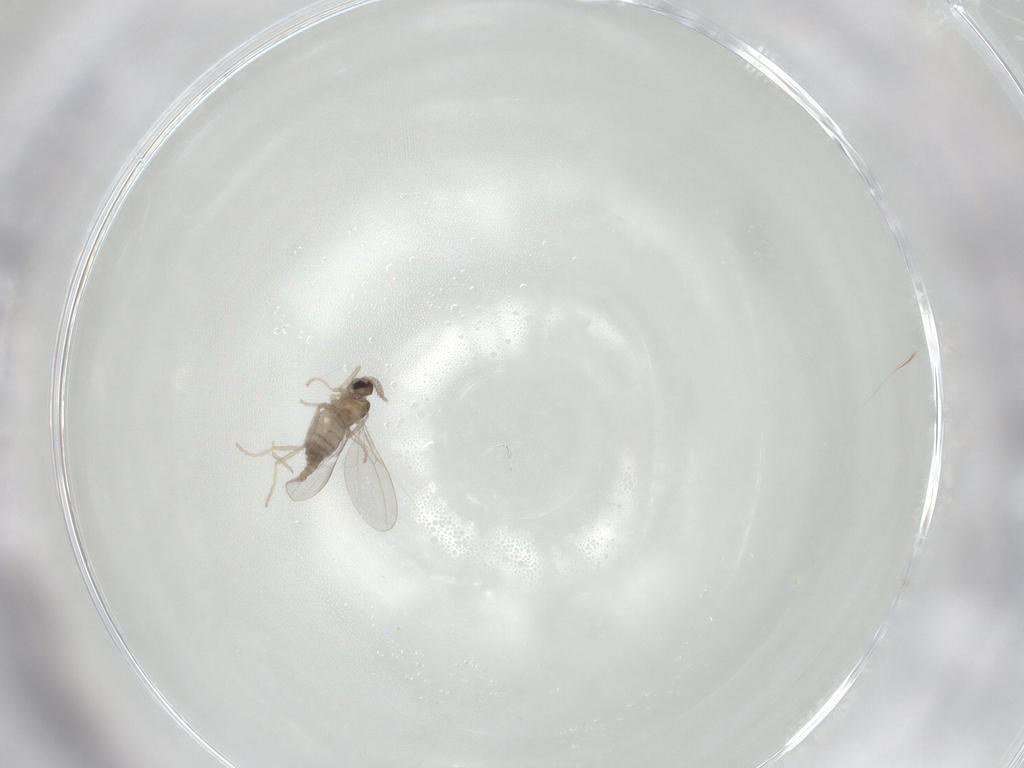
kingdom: Animalia
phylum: Arthropoda
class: Insecta
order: Diptera
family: Cecidomyiidae
